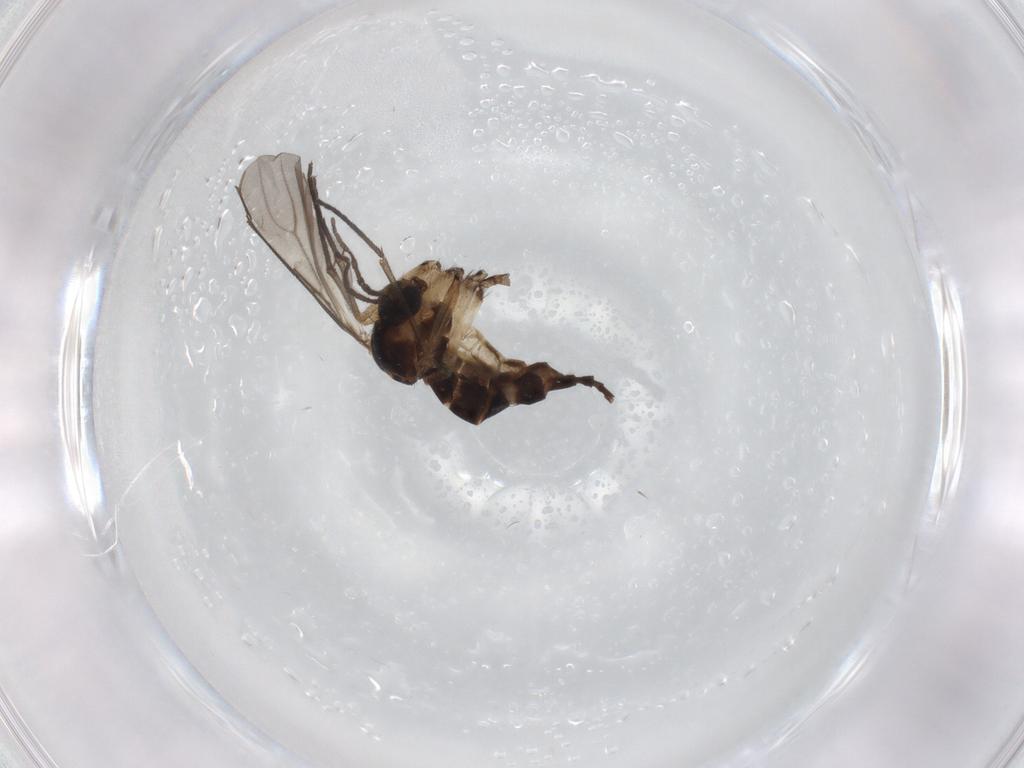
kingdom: Animalia
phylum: Arthropoda
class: Insecta
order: Diptera
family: Sciaridae
